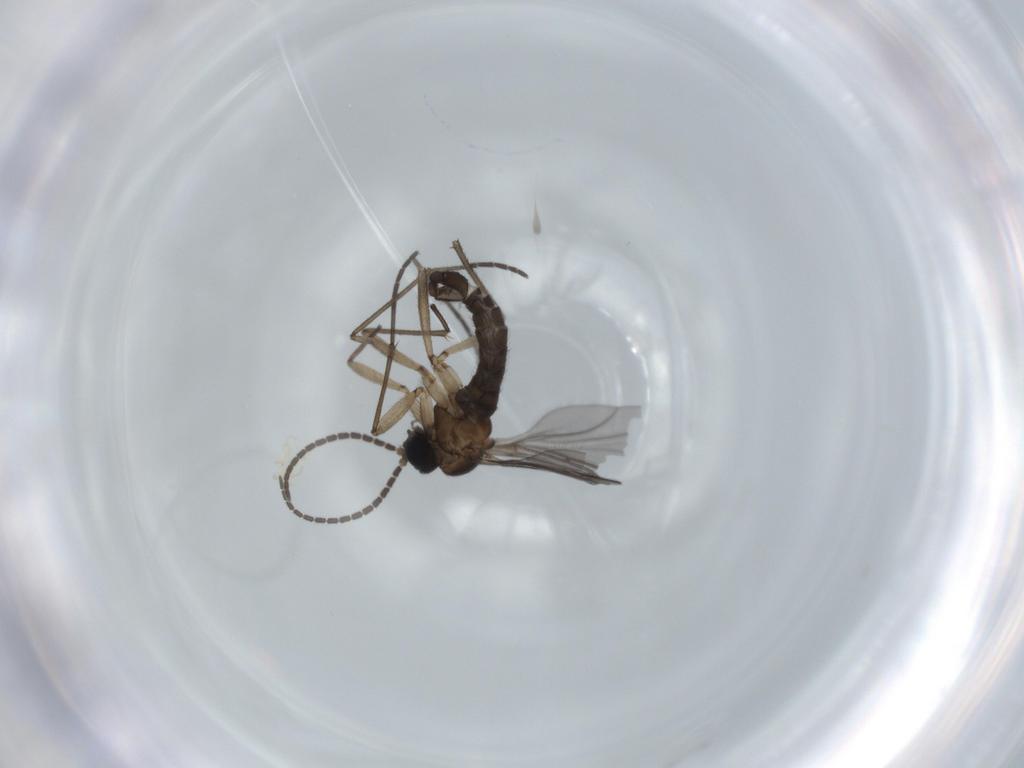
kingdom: Animalia
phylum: Arthropoda
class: Insecta
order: Diptera
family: Sciaridae
